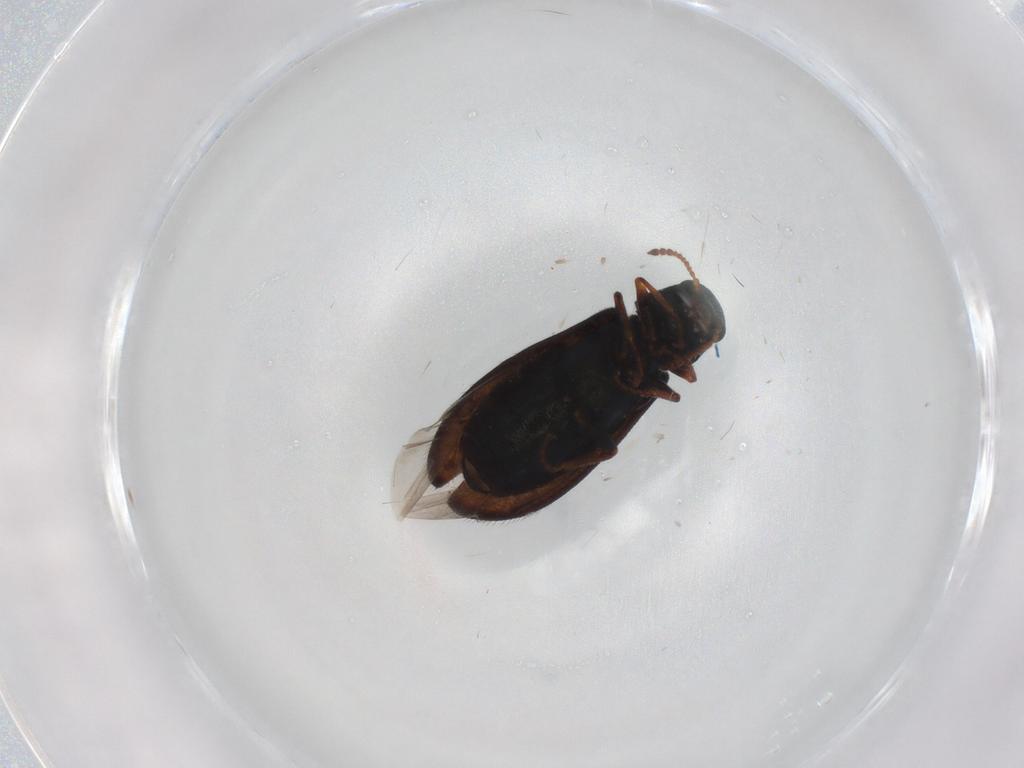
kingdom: Animalia
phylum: Arthropoda
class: Insecta
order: Coleoptera
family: Melyridae
